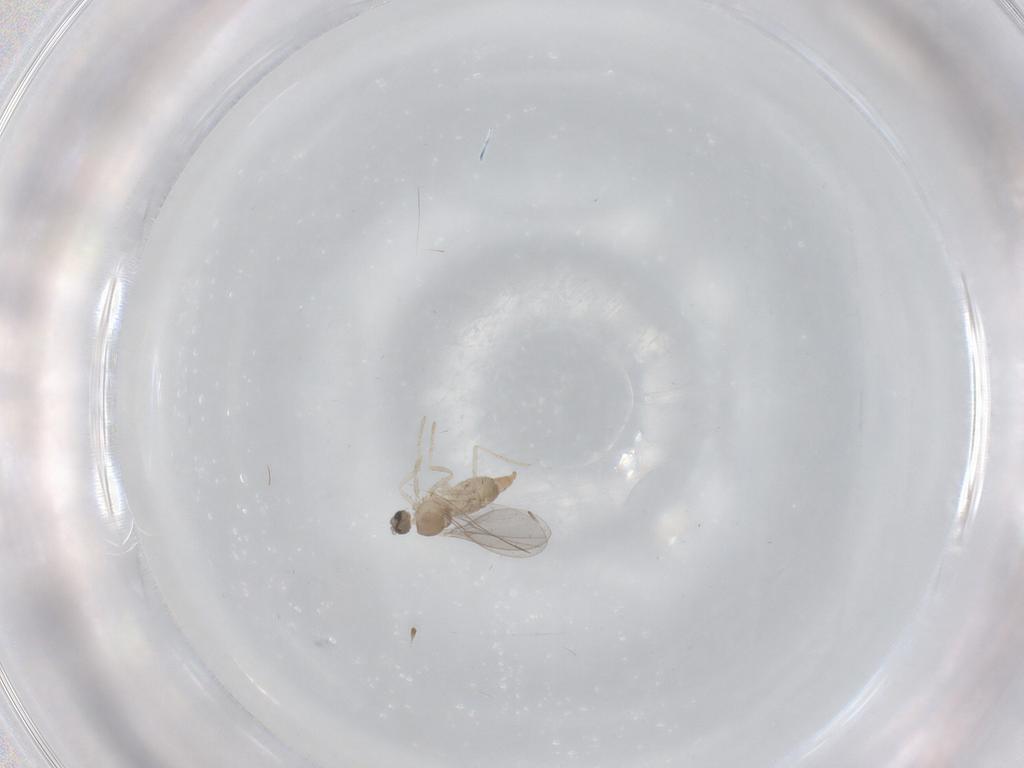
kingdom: Animalia
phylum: Arthropoda
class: Insecta
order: Diptera
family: Cecidomyiidae
